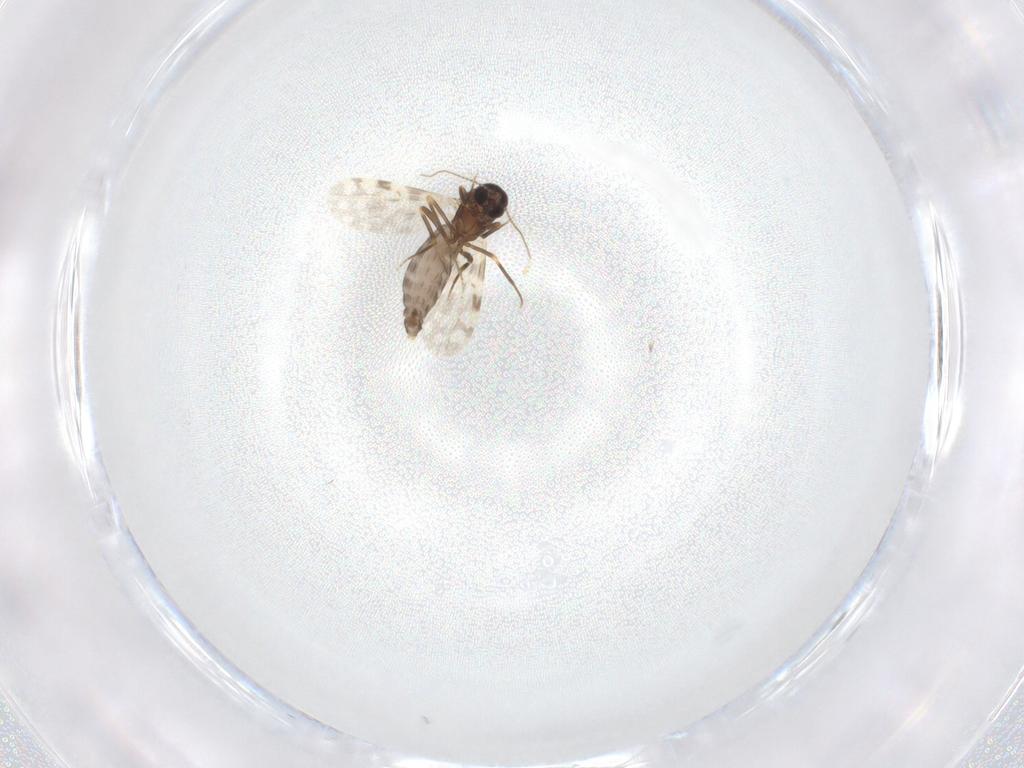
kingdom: Animalia
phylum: Arthropoda
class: Insecta
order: Diptera
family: Ceratopogonidae
